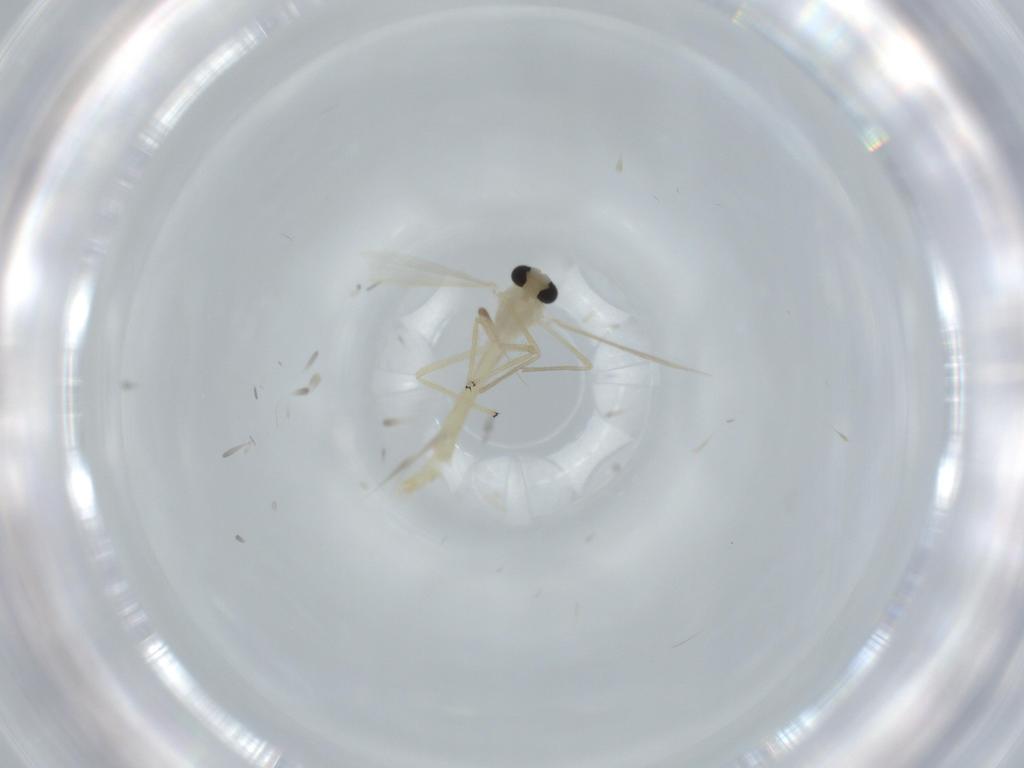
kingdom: Animalia
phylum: Arthropoda
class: Insecta
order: Diptera
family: Chironomidae
